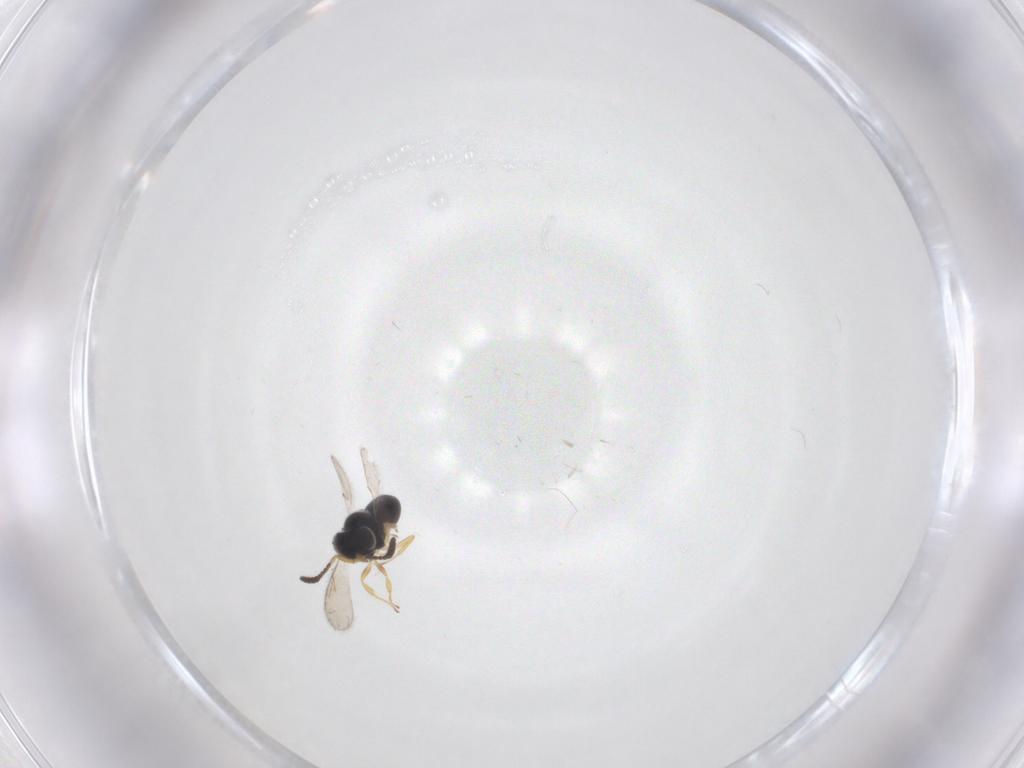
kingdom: Animalia
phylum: Arthropoda
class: Insecta
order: Hymenoptera
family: Scelionidae
